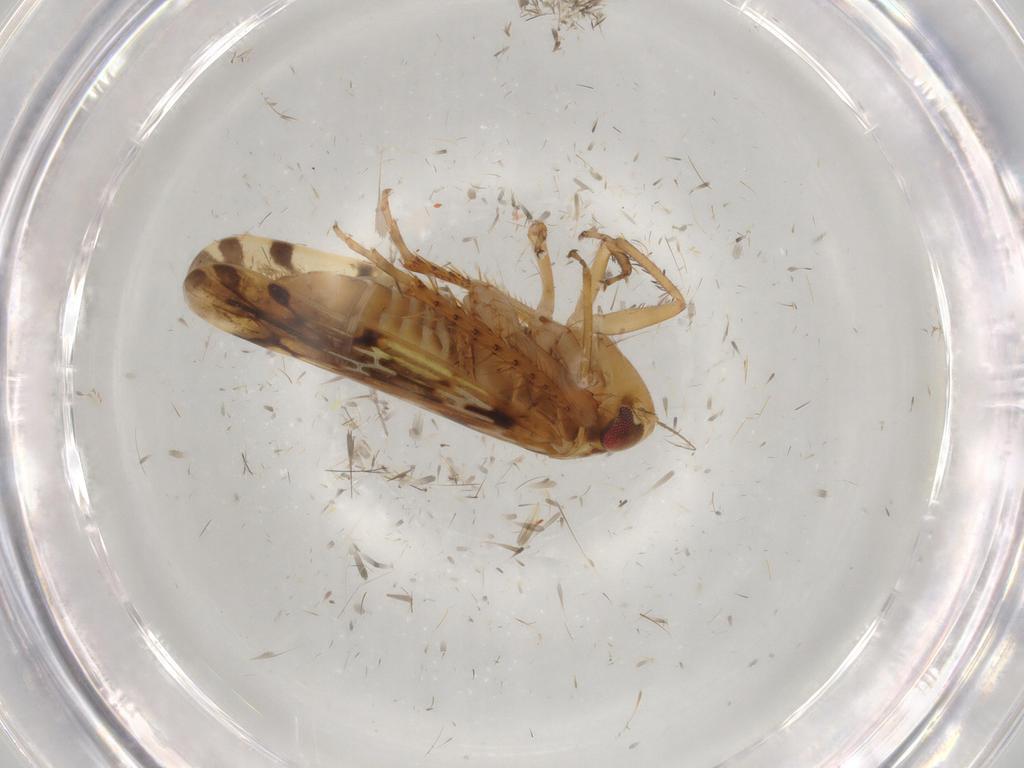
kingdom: Animalia
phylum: Arthropoda
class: Insecta
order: Hemiptera
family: Cicadellidae
